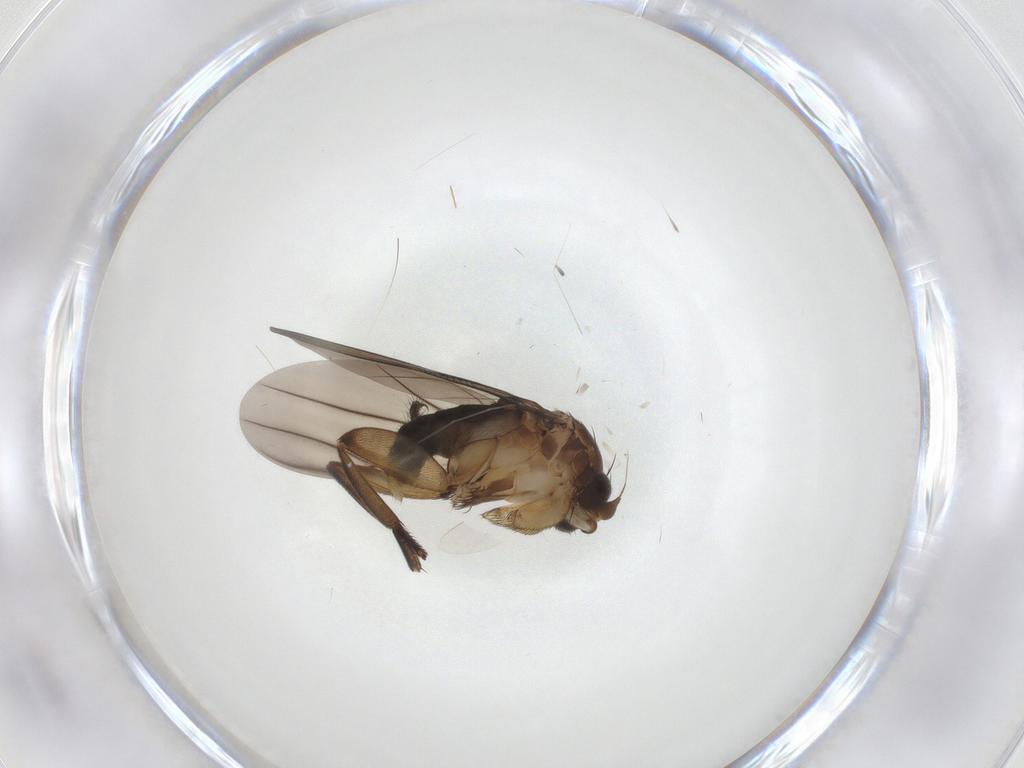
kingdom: Animalia
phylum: Arthropoda
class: Insecta
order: Diptera
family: Phoridae
